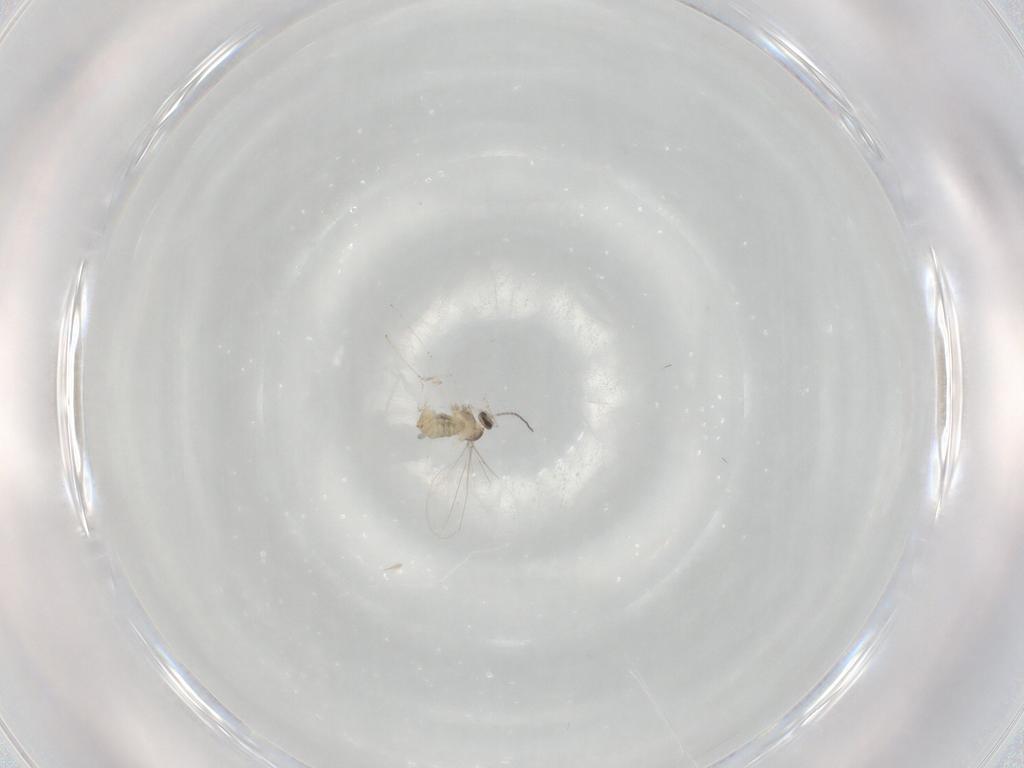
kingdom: Animalia
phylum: Arthropoda
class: Insecta
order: Diptera
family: Cecidomyiidae
